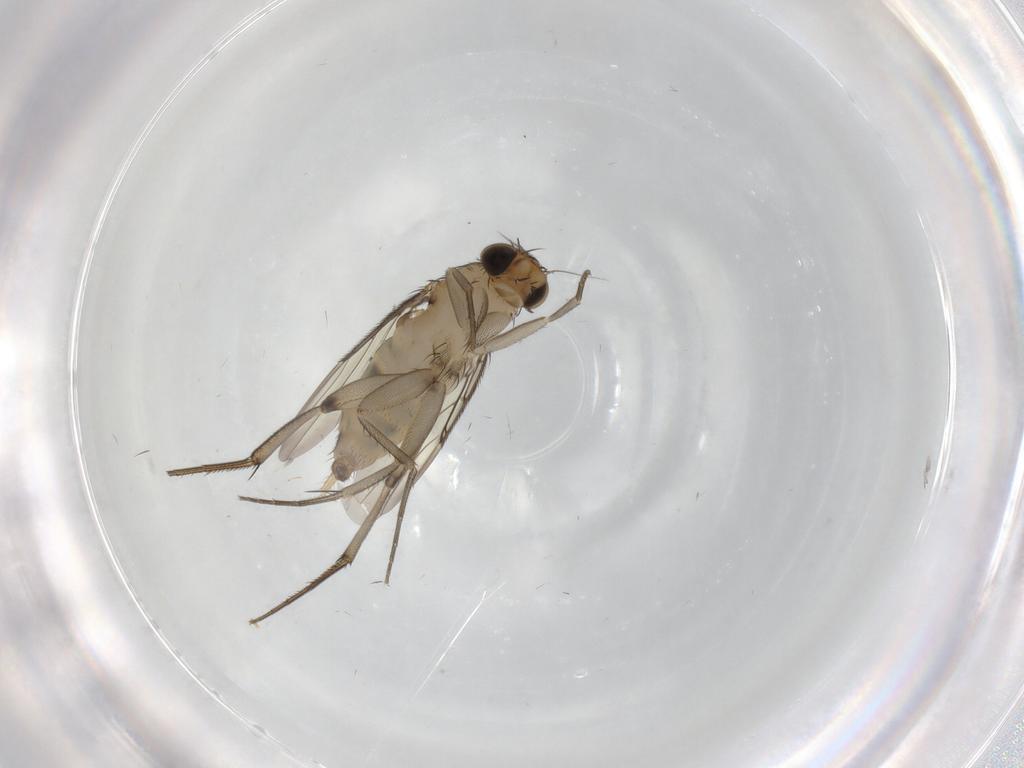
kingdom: Animalia
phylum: Arthropoda
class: Insecta
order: Diptera
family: Phoridae
